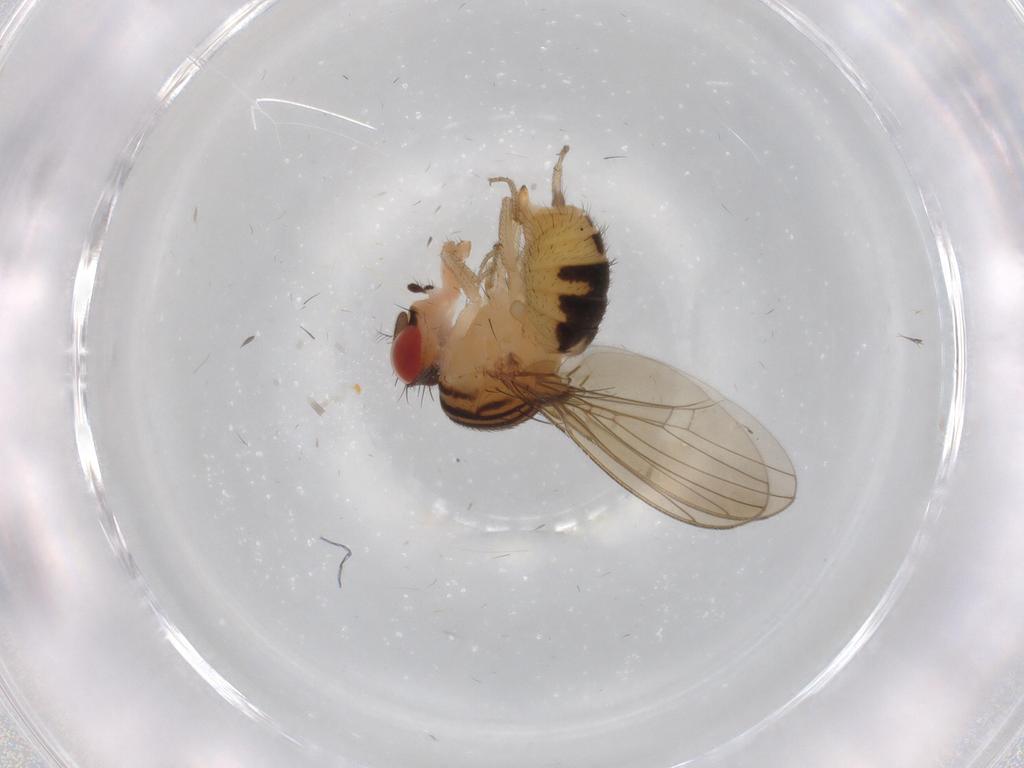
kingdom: Animalia
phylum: Arthropoda
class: Insecta
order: Diptera
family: Drosophilidae
